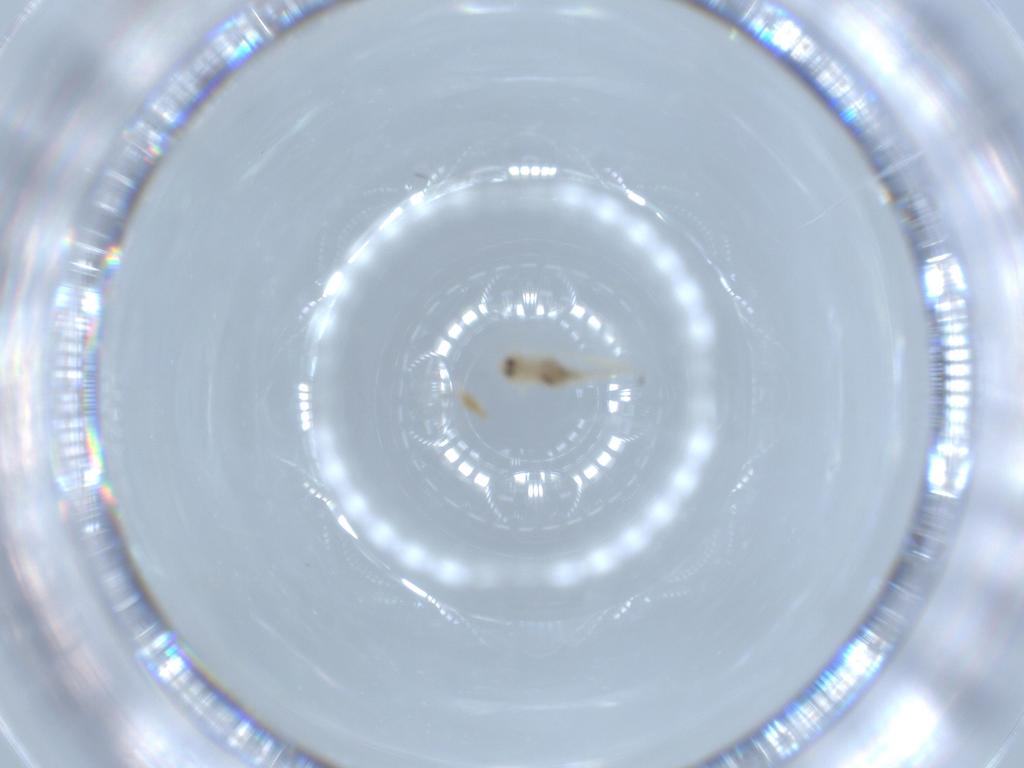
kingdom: Animalia
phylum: Arthropoda
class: Insecta
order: Hemiptera
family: Aleyrodidae
